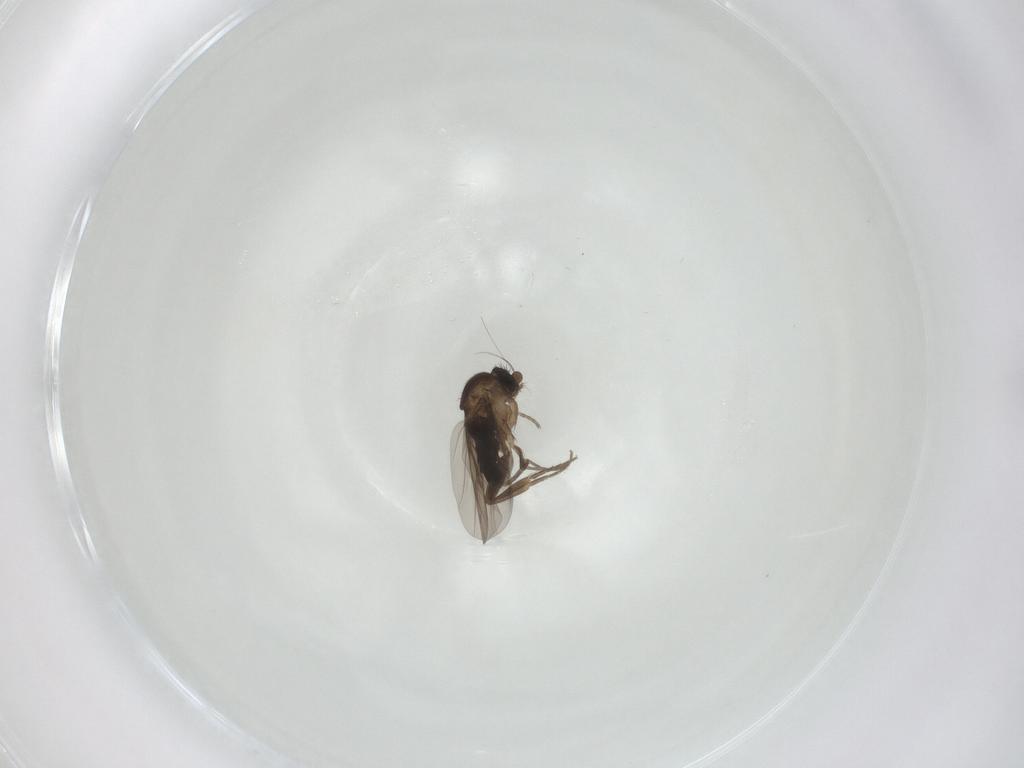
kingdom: Animalia
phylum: Arthropoda
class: Insecta
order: Diptera
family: Phoridae
